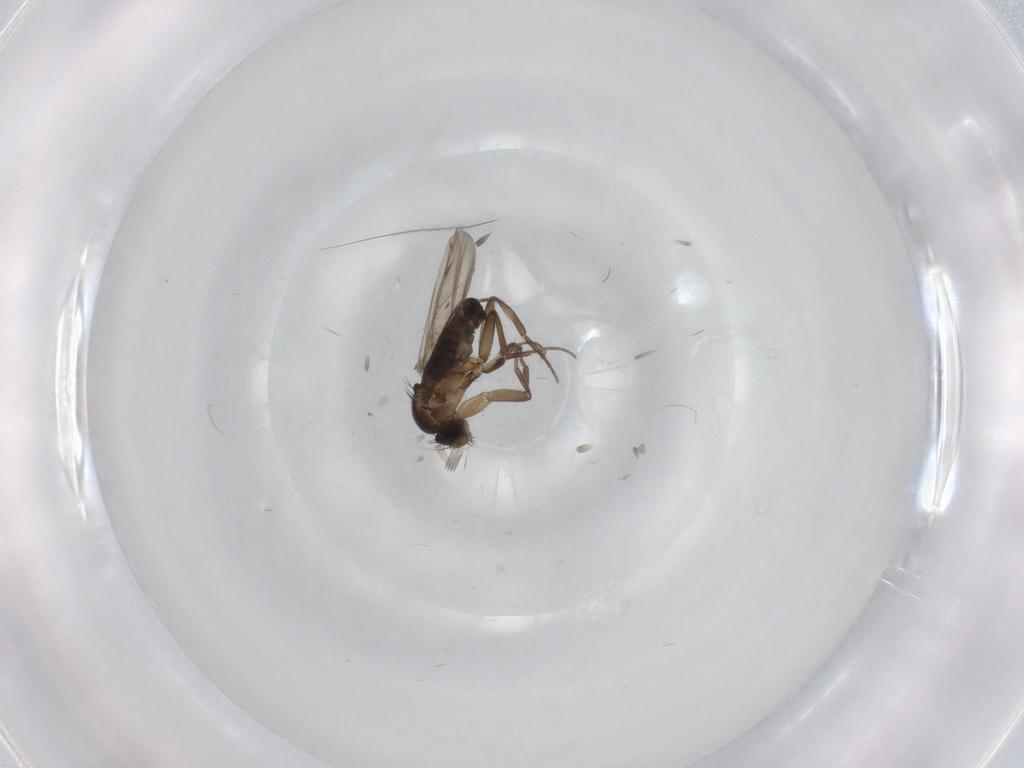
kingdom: Animalia
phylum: Arthropoda
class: Insecta
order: Diptera
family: Phoridae
